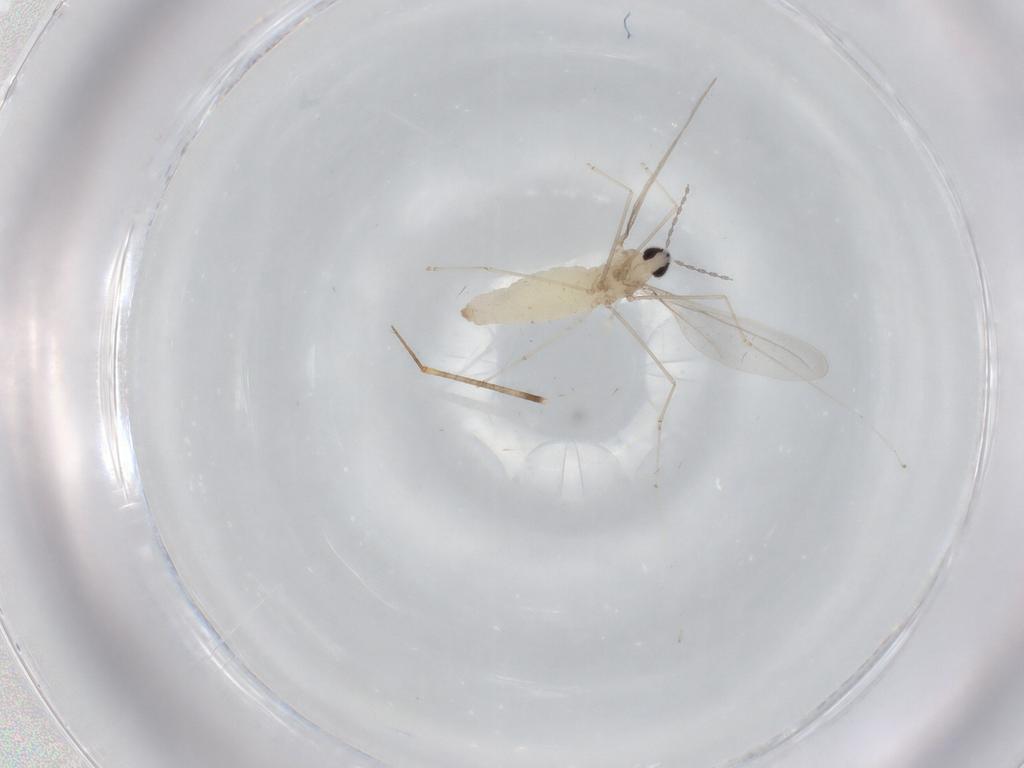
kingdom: Animalia
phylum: Arthropoda
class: Insecta
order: Diptera
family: Cecidomyiidae
